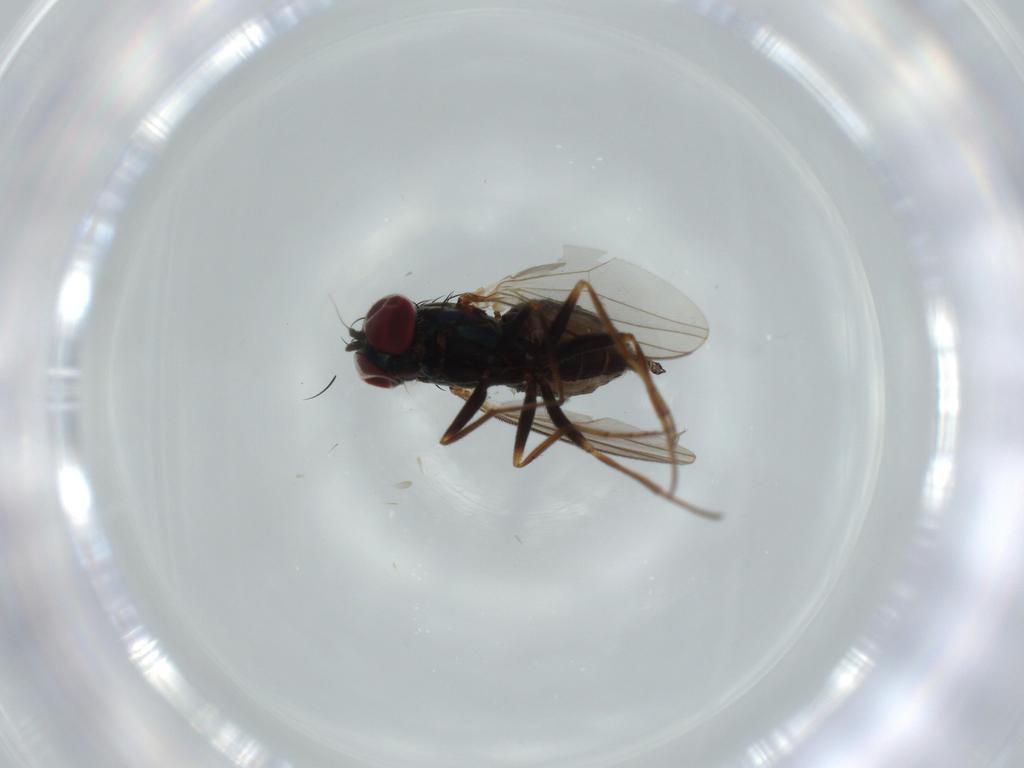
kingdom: Animalia
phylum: Arthropoda
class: Insecta
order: Diptera
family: Dolichopodidae
